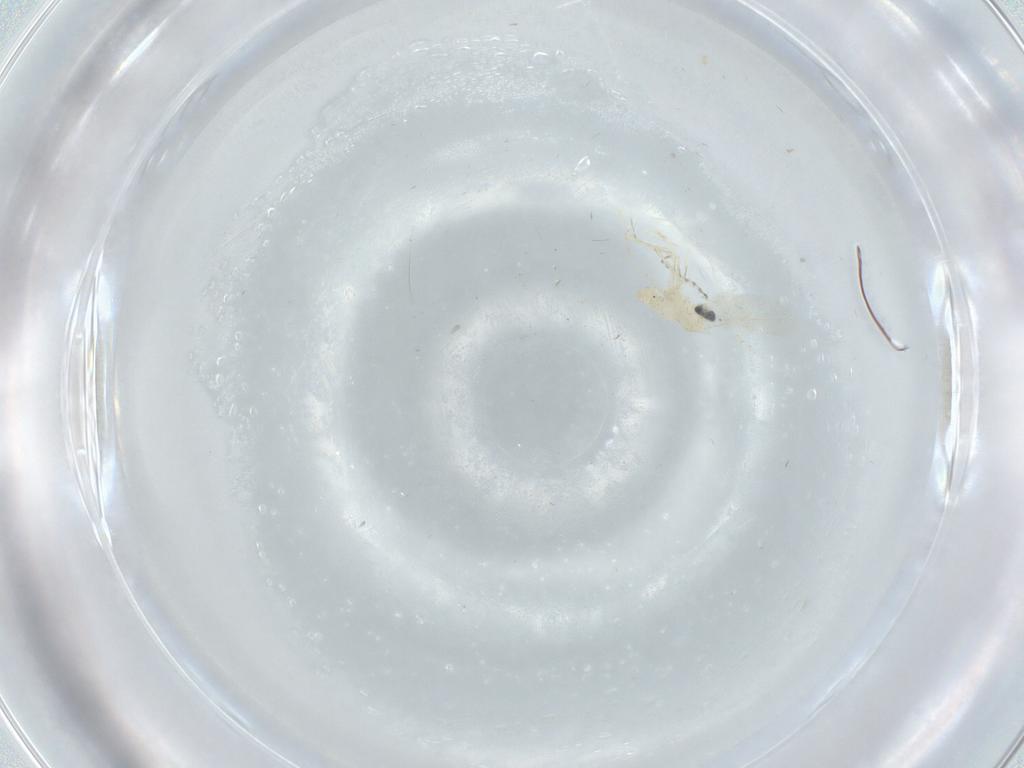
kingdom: Animalia
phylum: Arthropoda
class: Insecta
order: Diptera
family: Cecidomyiidae
